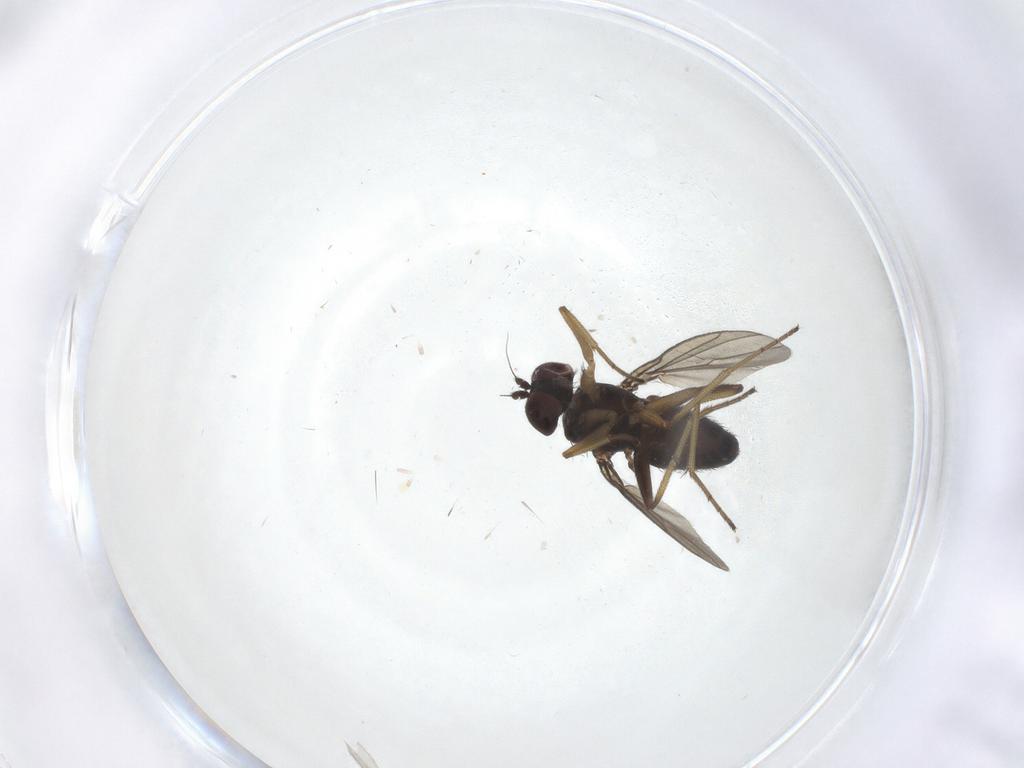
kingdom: Animalia
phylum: Arthropoda
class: Insecta
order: Diptera
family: Dolichopodidae
